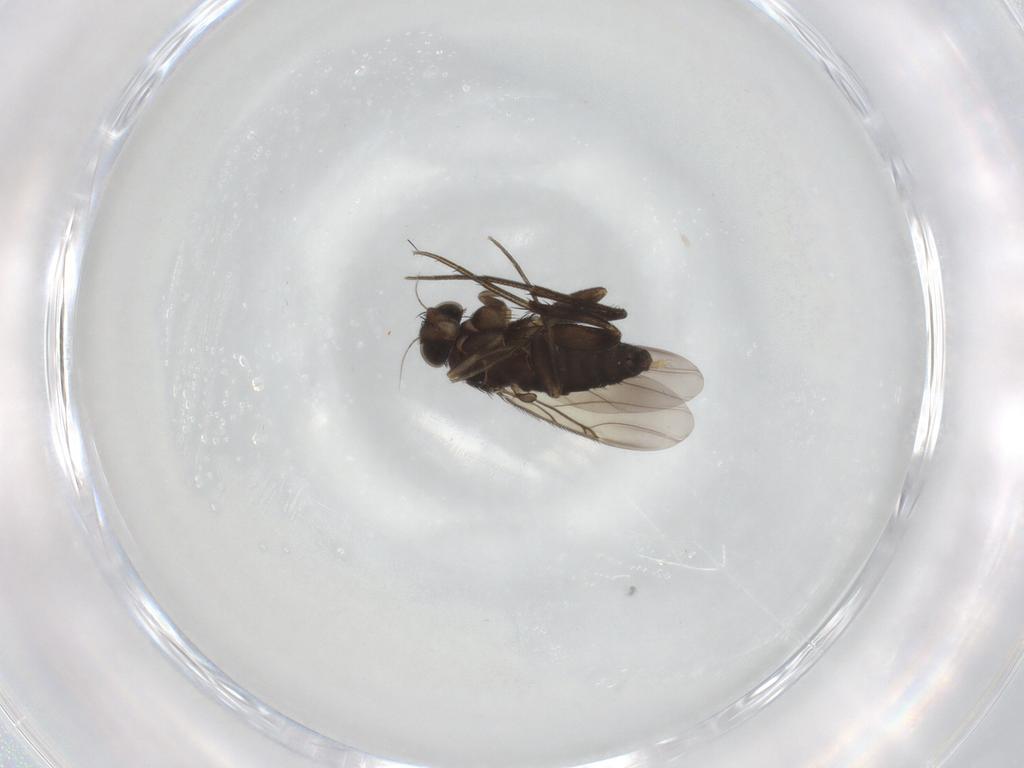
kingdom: Animalia
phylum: Arthropoda
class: Insecta
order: Diptera
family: Phoridae
